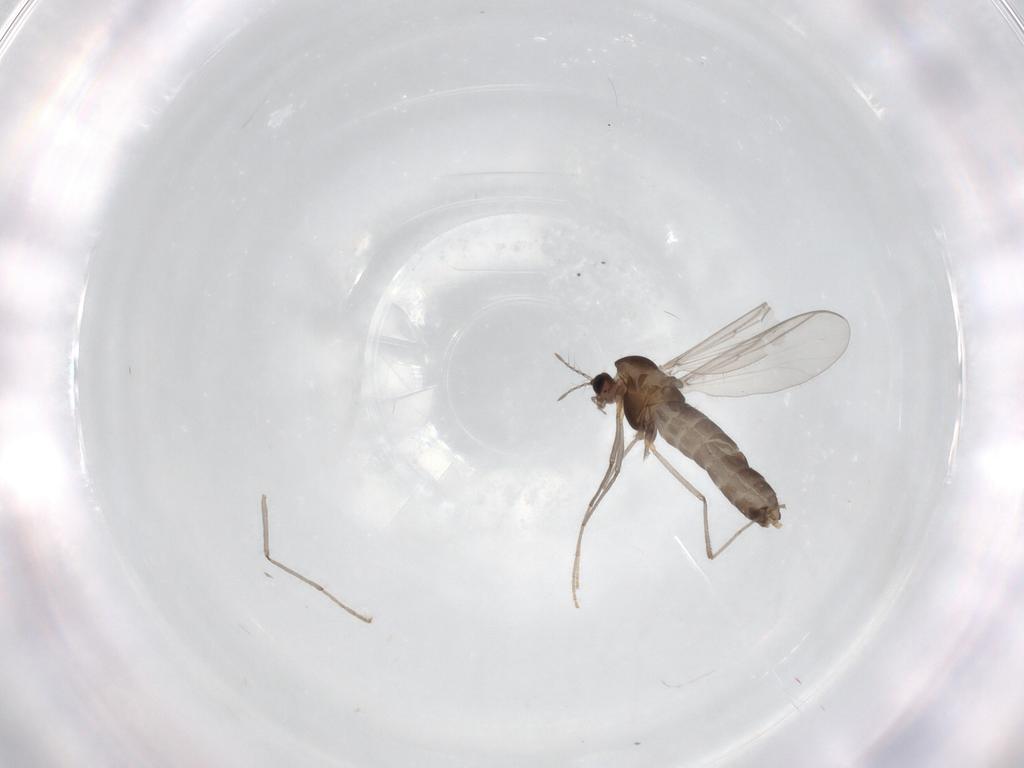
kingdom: Animalia
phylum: Arthropoda
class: Insecta
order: Diptera
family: Chironomidae
